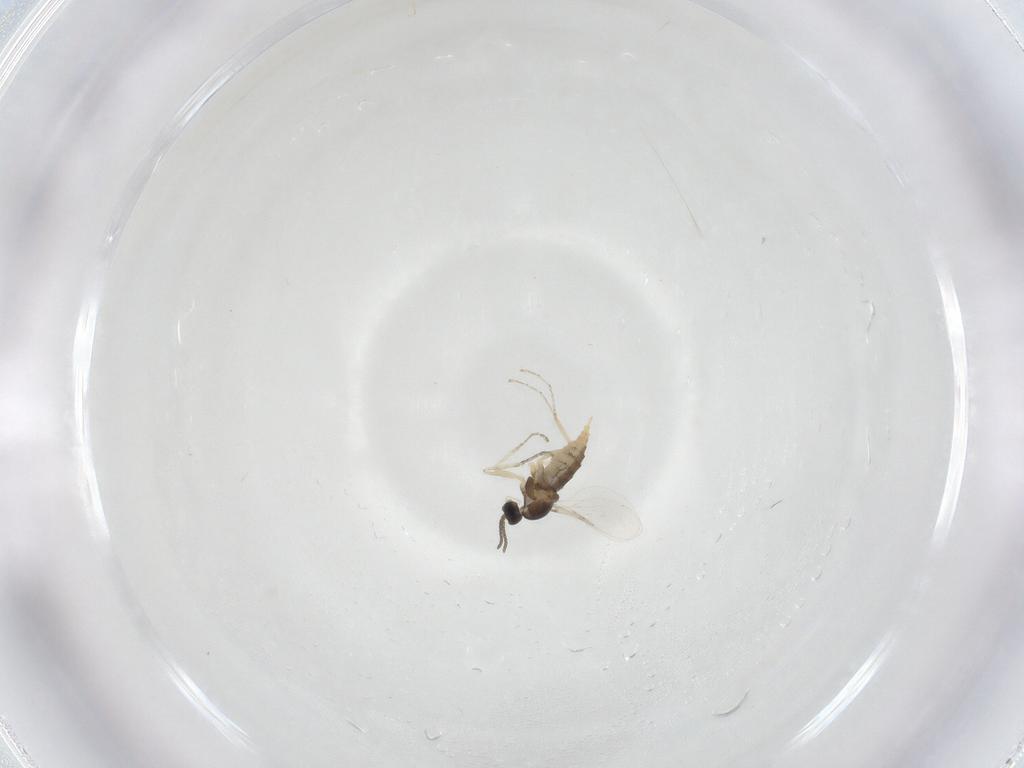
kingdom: Animalia
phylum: Arthropoda
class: Insecta
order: Diptera
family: Cecidomyiidae
